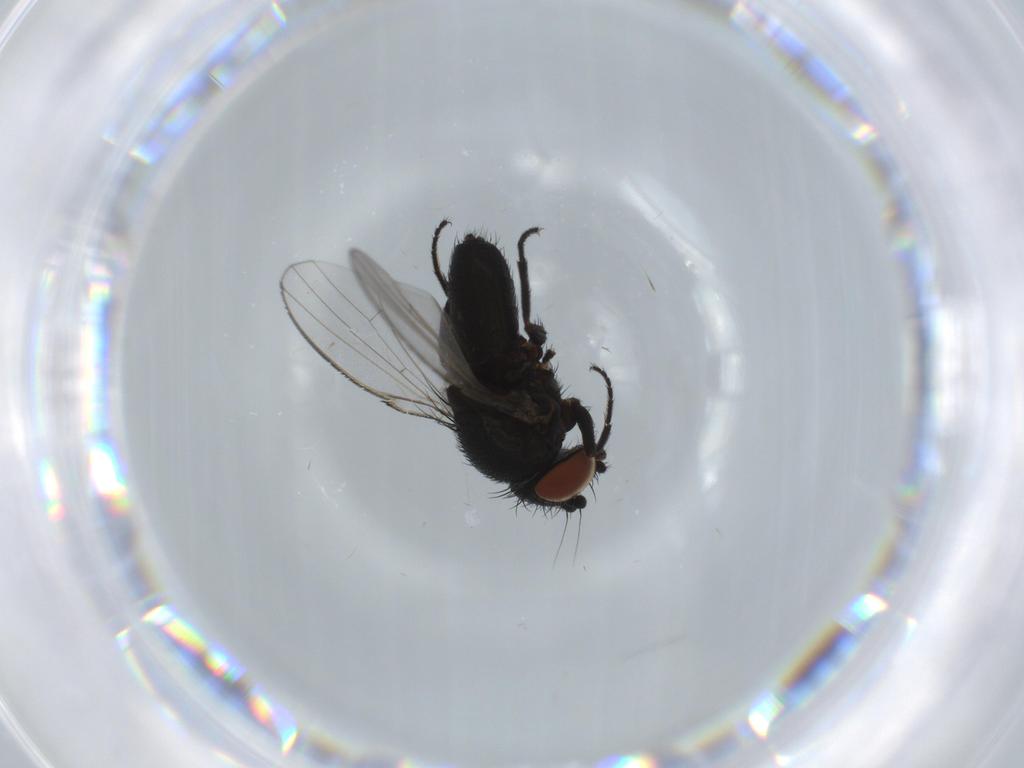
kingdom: Animalia
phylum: Arthropoda
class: Insecta
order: Diptera
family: Milichiidae
